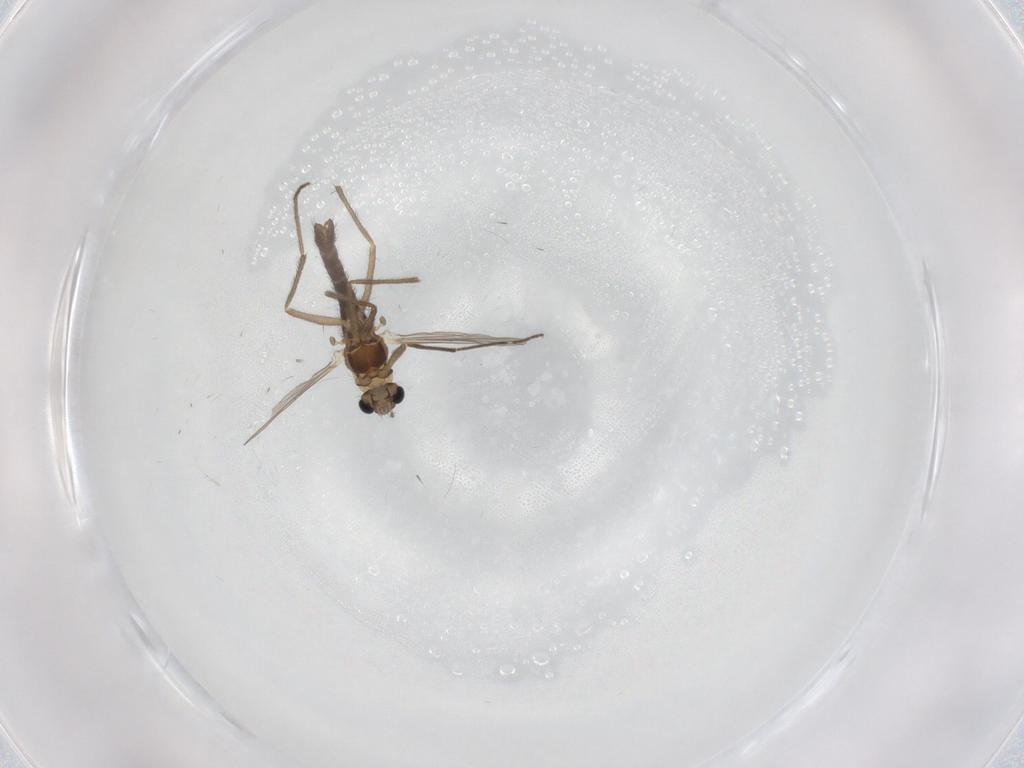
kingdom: Animalia
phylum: Arthropoda
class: Insecta
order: Diptera
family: Chironomidae
